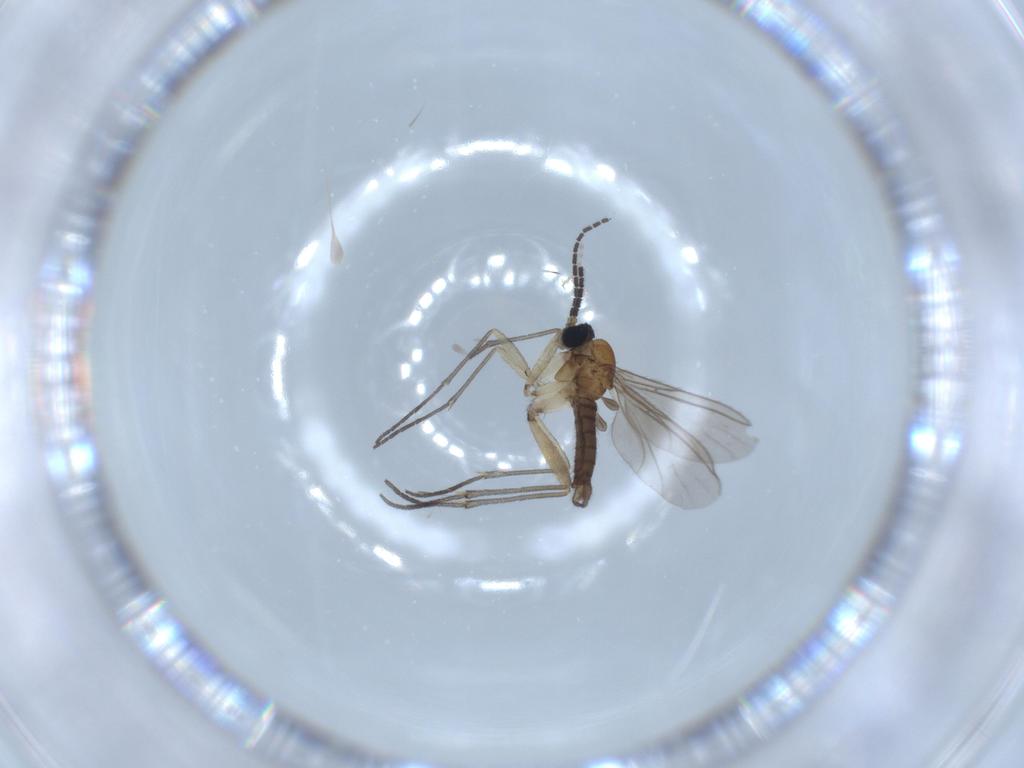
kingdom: Animalia
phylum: Arthropoda
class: Insecta
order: Diptera
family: Sciaridae
